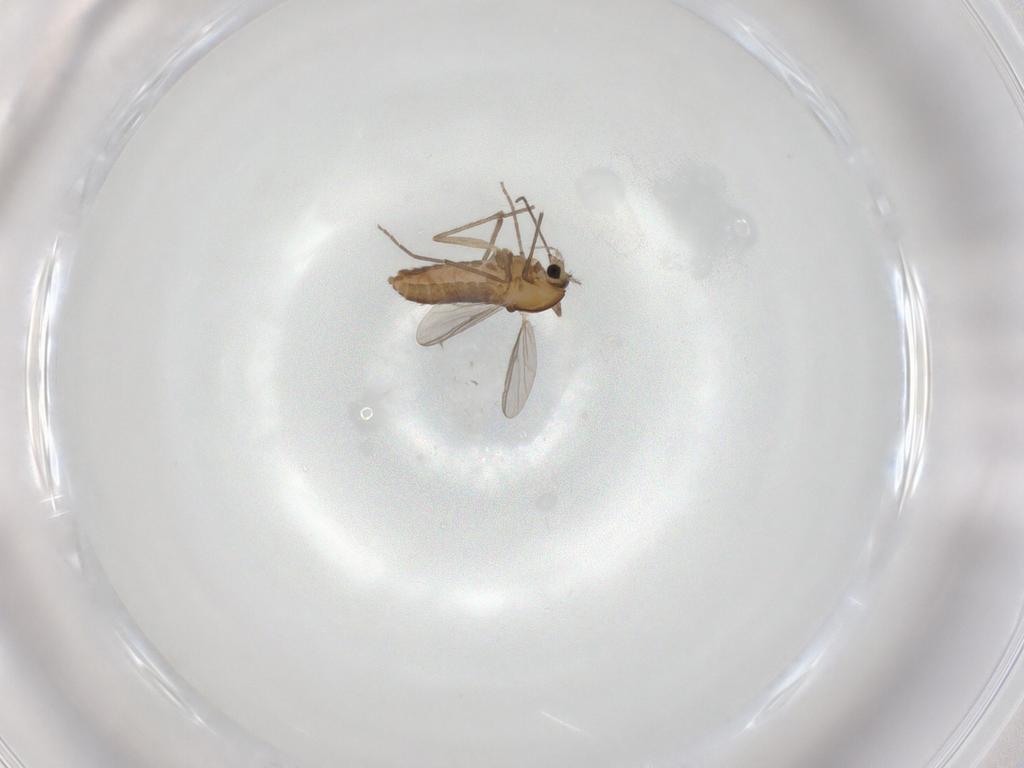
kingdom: Animalia
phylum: Arthropoda
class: Insecta
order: Diptera
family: Chironomidae
